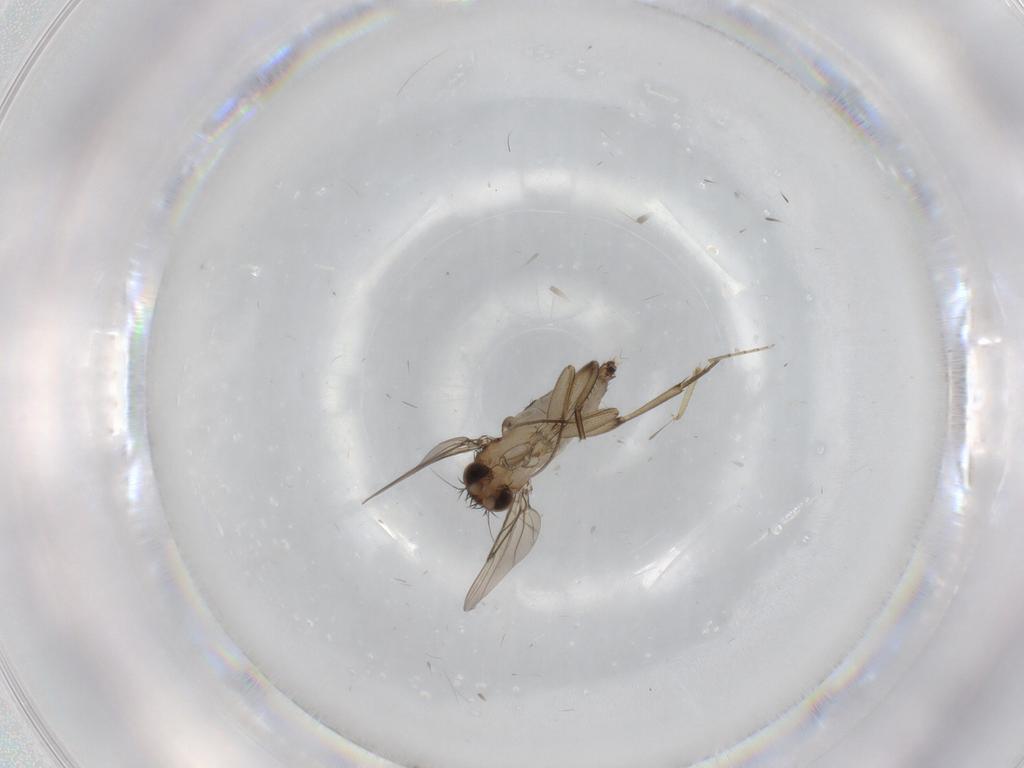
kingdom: Animalia
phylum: Arthropoda
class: Insecta
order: Diptera
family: Phoridae
